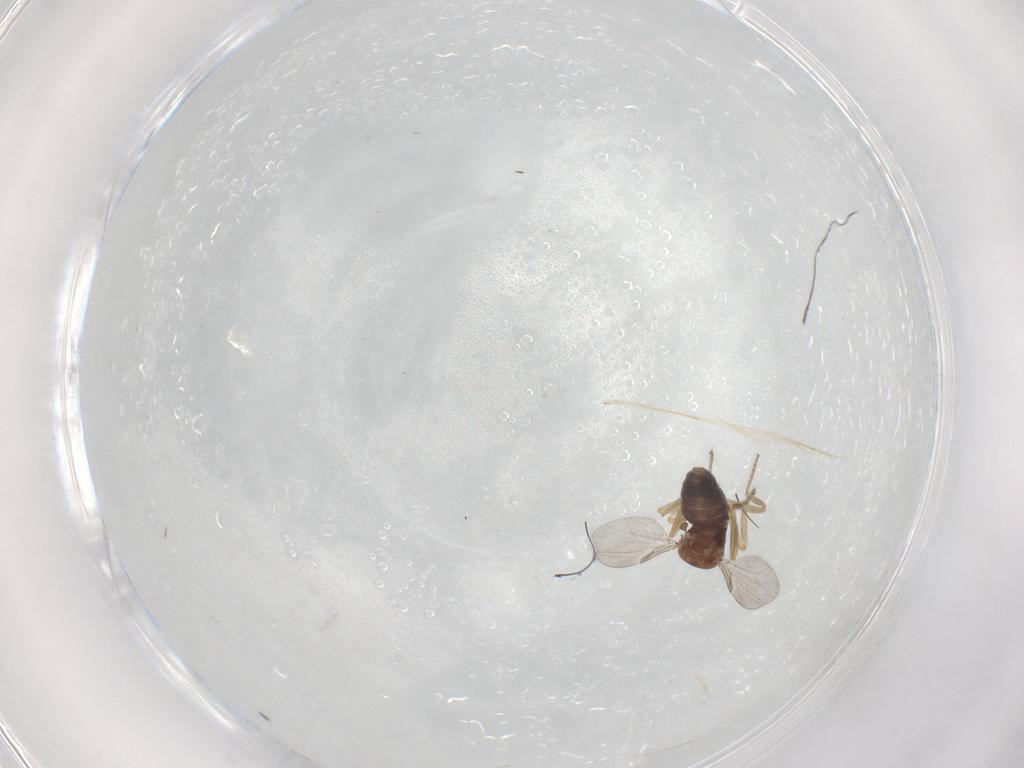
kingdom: Animalia
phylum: Arthropoda
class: Insecta
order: Diptera
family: Ceratopogonidae
